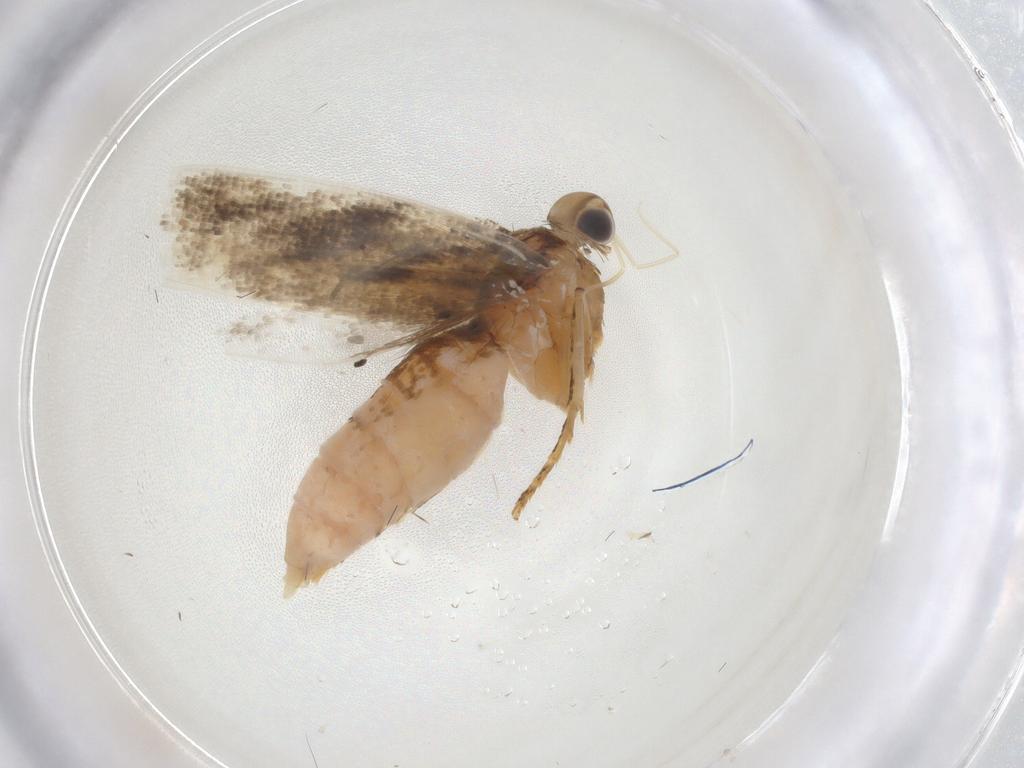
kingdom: Animalia
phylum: Arthropoda
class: Insecta
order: Lepidoptera
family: Gelechiidae
